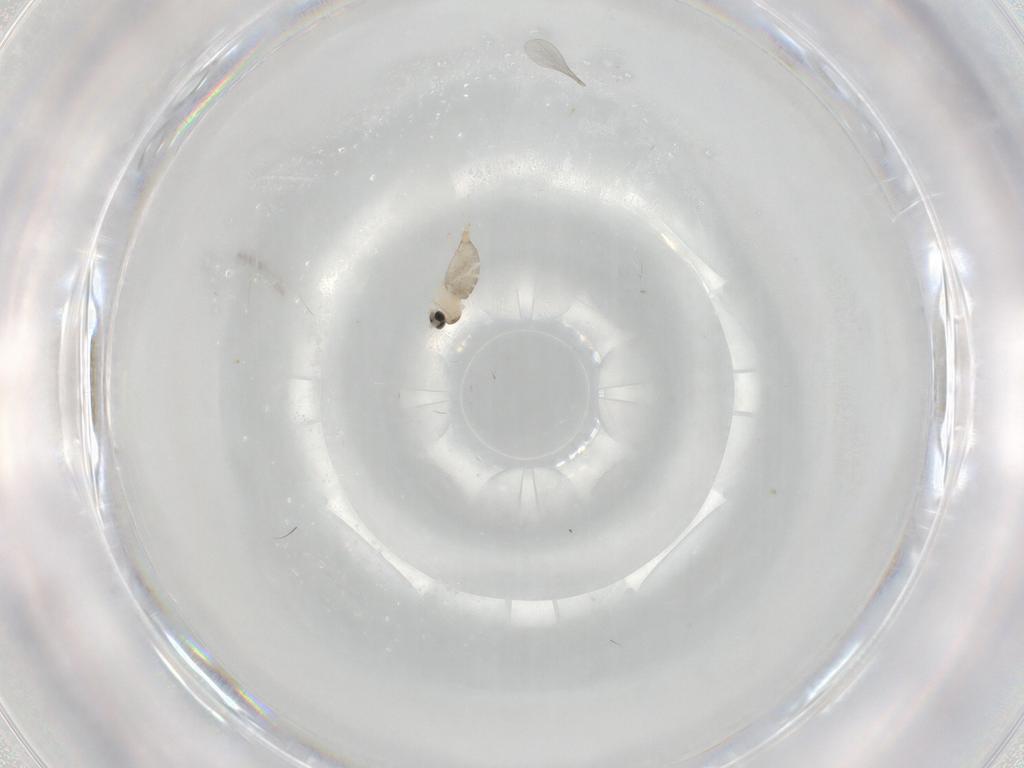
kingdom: Animalia
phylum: Arthropoda
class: Insecta
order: Diptera
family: Cecidomyiidae
